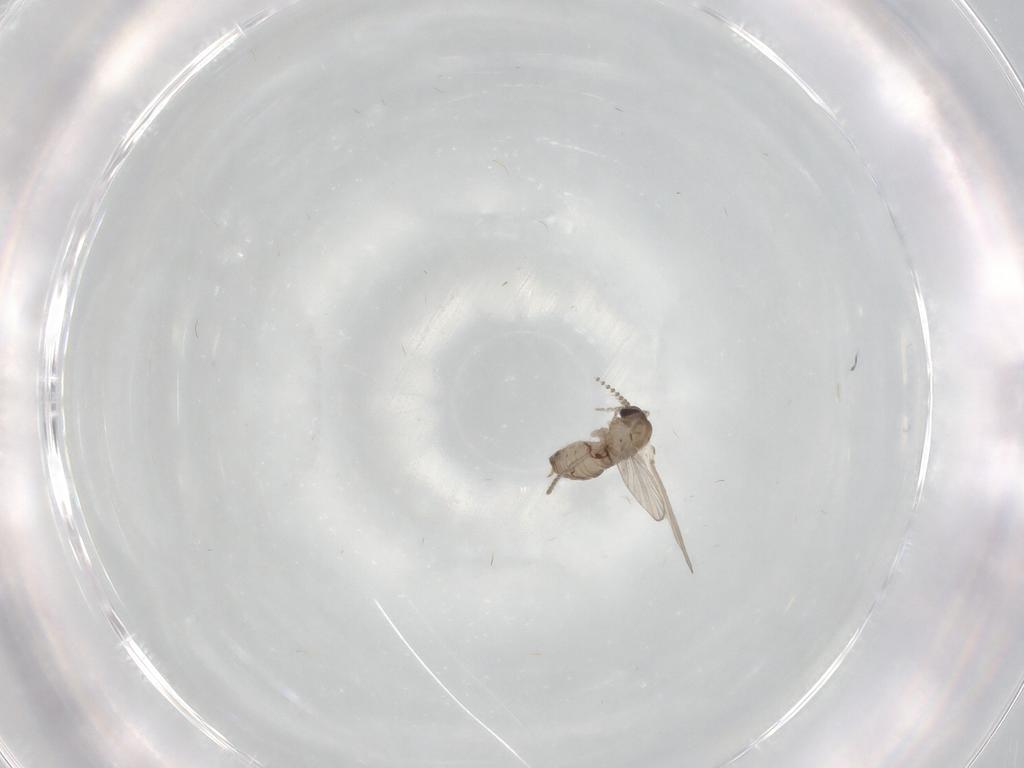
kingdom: Animalia
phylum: Arthropoda
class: Insecta
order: Diptera
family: Psychodidae
